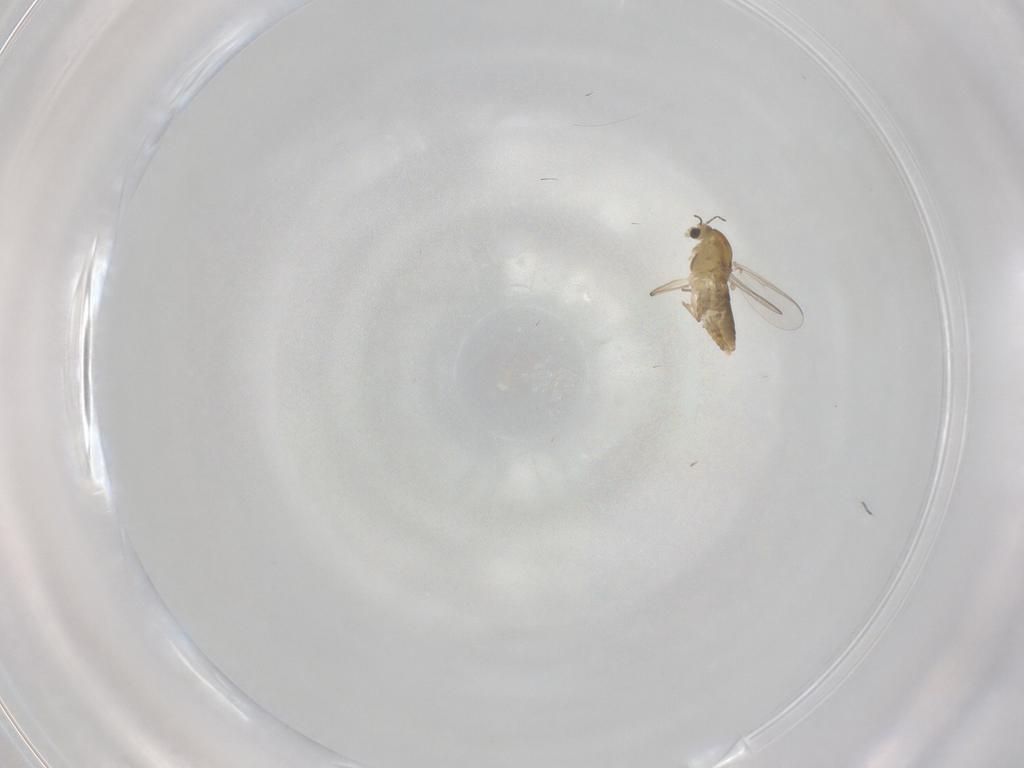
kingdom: Animalia
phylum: Arthropoda
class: Insecta
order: Diptera
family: Chironomidae
